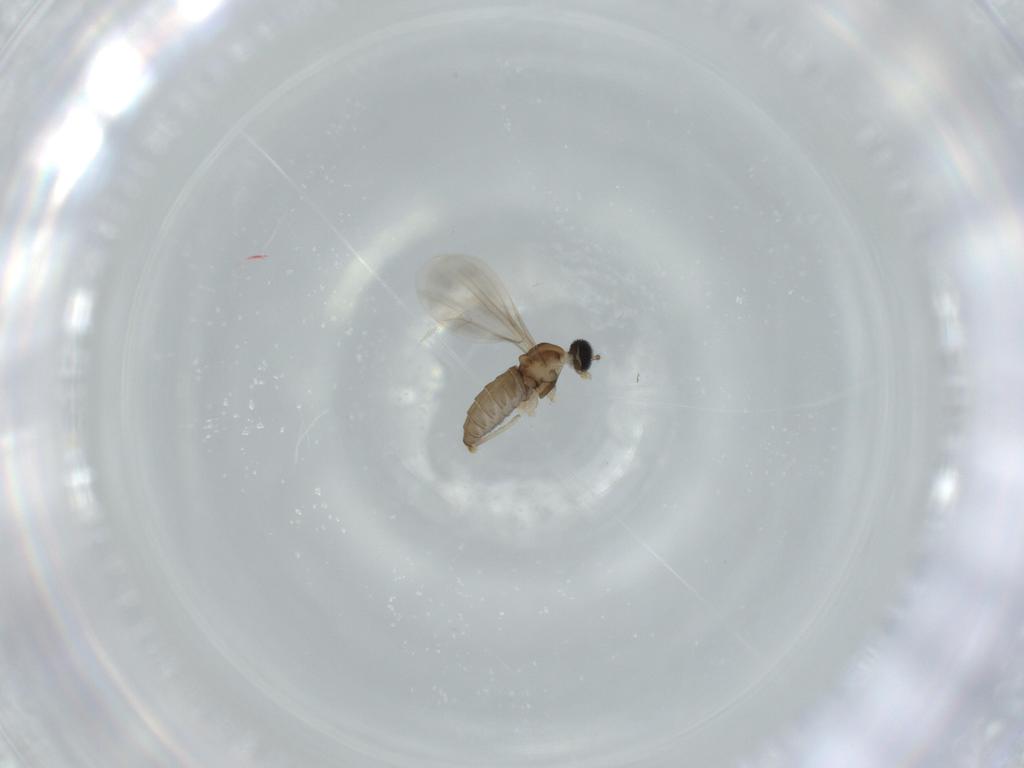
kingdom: Animalia
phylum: Arthropoda
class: Insecta
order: Diptera
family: Cecidomyiidae
